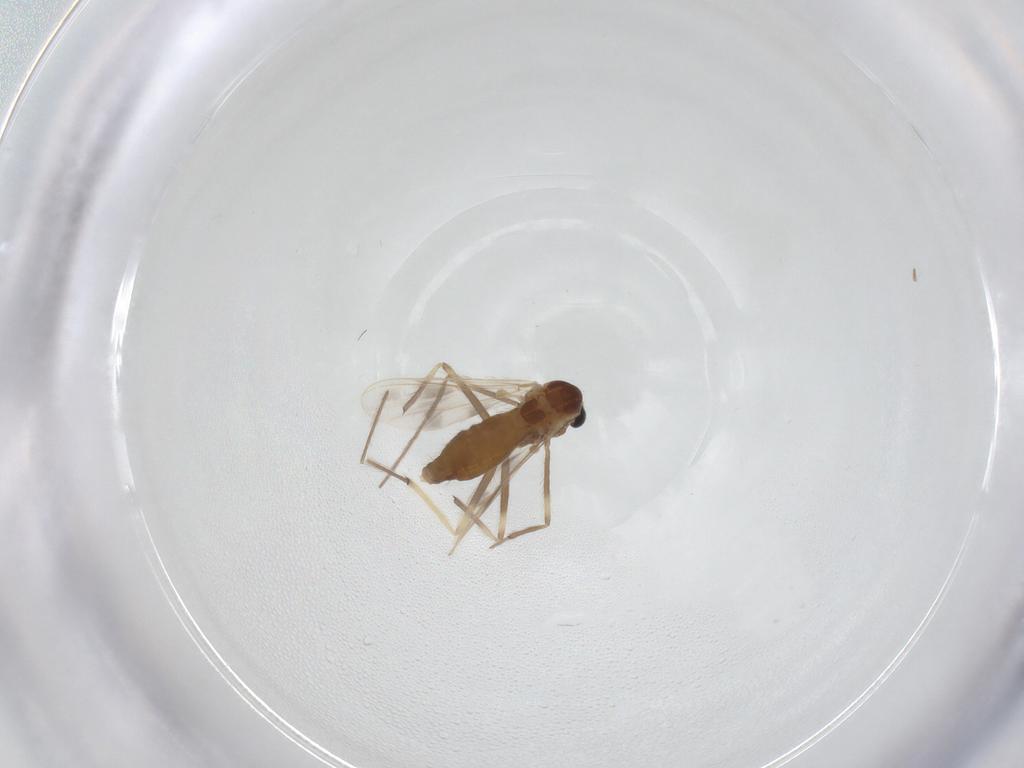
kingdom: Animalia
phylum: Arthropoda
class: Insecta
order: Diptera
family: Chironomidae
